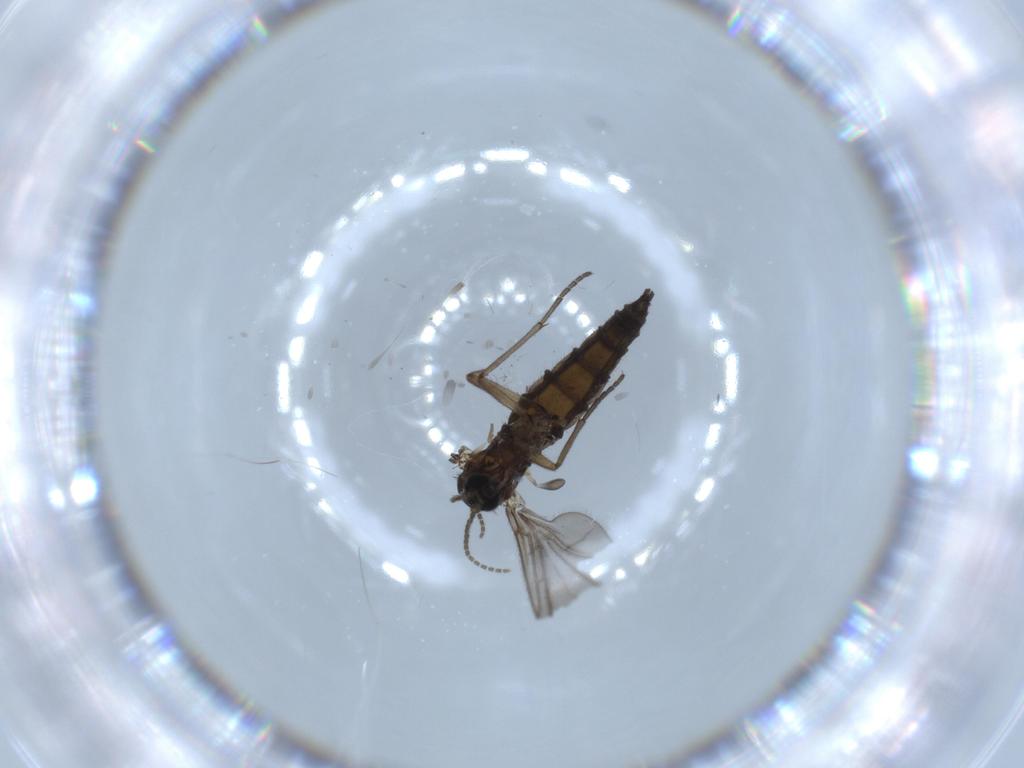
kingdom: Animalia
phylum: Arthropoda
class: Insecta
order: Diptera
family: Sciaridae
